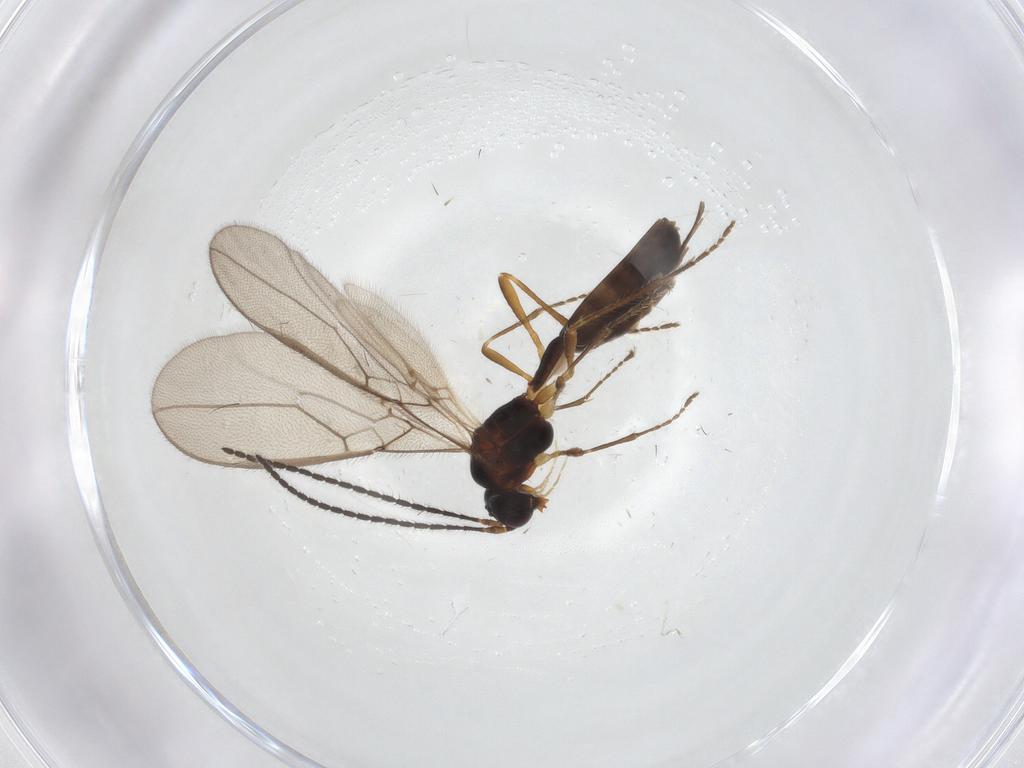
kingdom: Animalia
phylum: Arthropoda
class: Insecta
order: Hymenoptera
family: Braconidae
